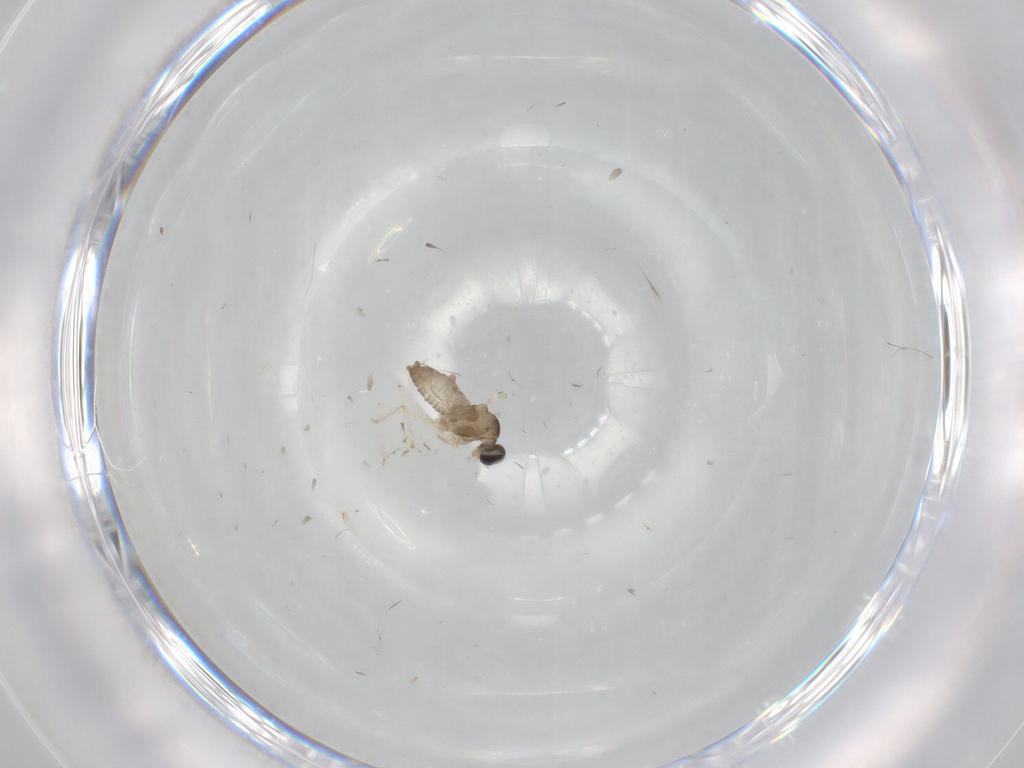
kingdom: Animalia
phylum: Arthropoda
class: Insecta
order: Diptera
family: Cecidomyiidae
